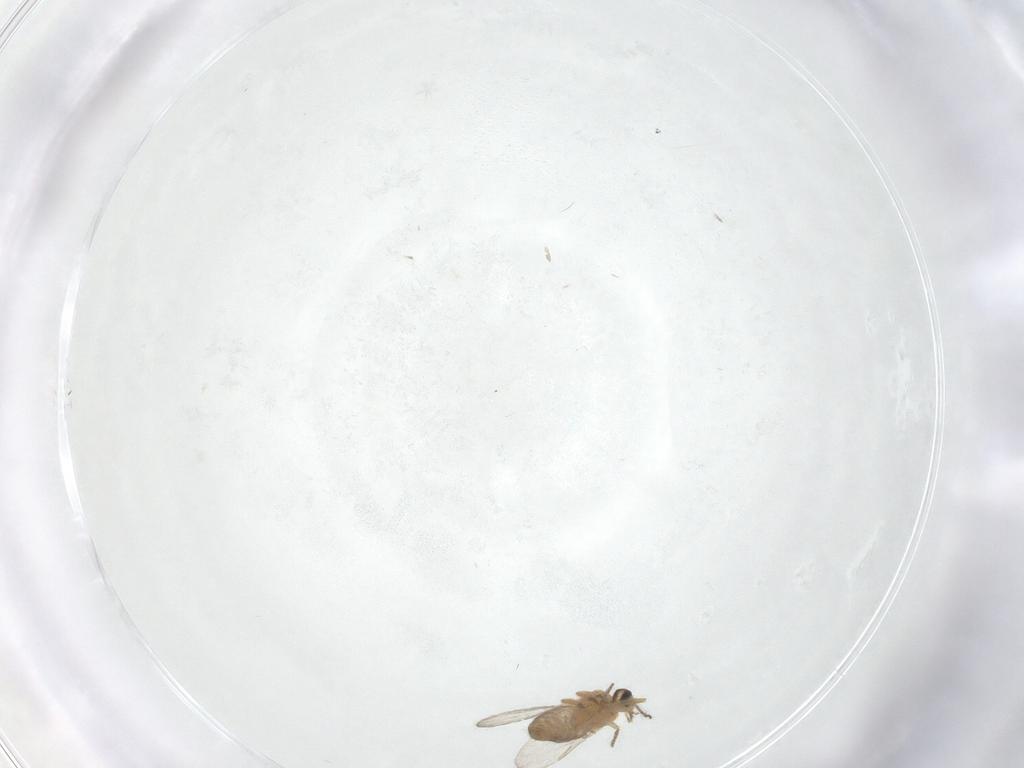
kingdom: Animalia
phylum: Arthropoda
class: Insecta
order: Diptera
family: Ceratopogonidae
